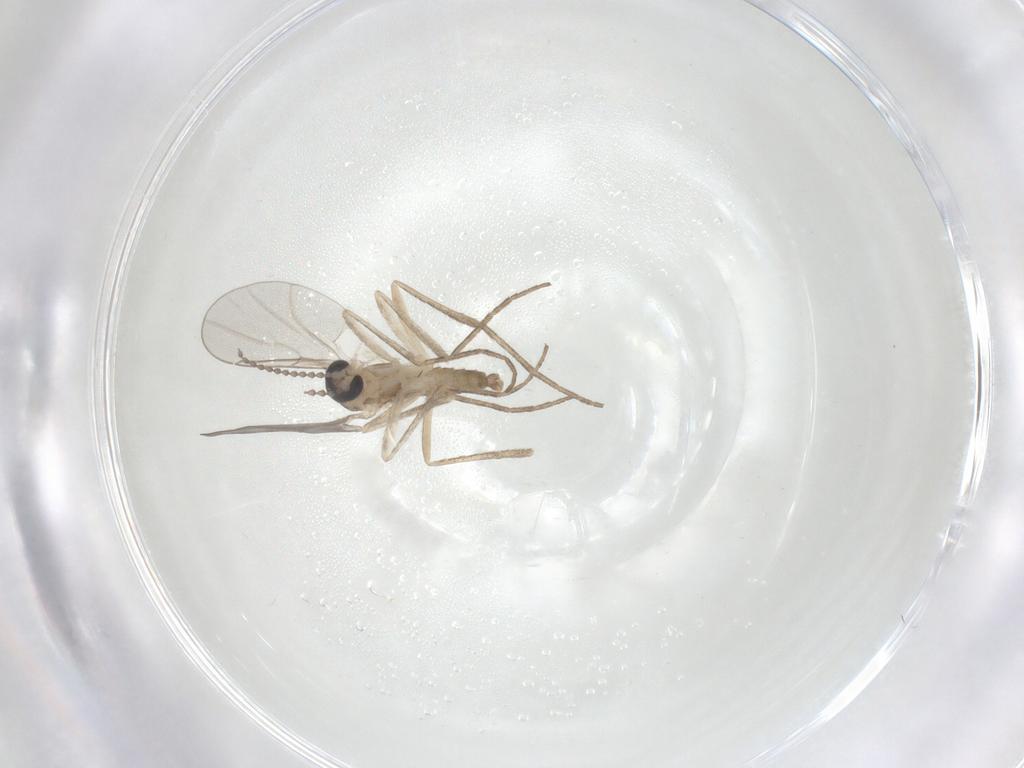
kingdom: Animalia
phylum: Arthropoda
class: Insecta
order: Diptera
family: Cecidomyiidae
